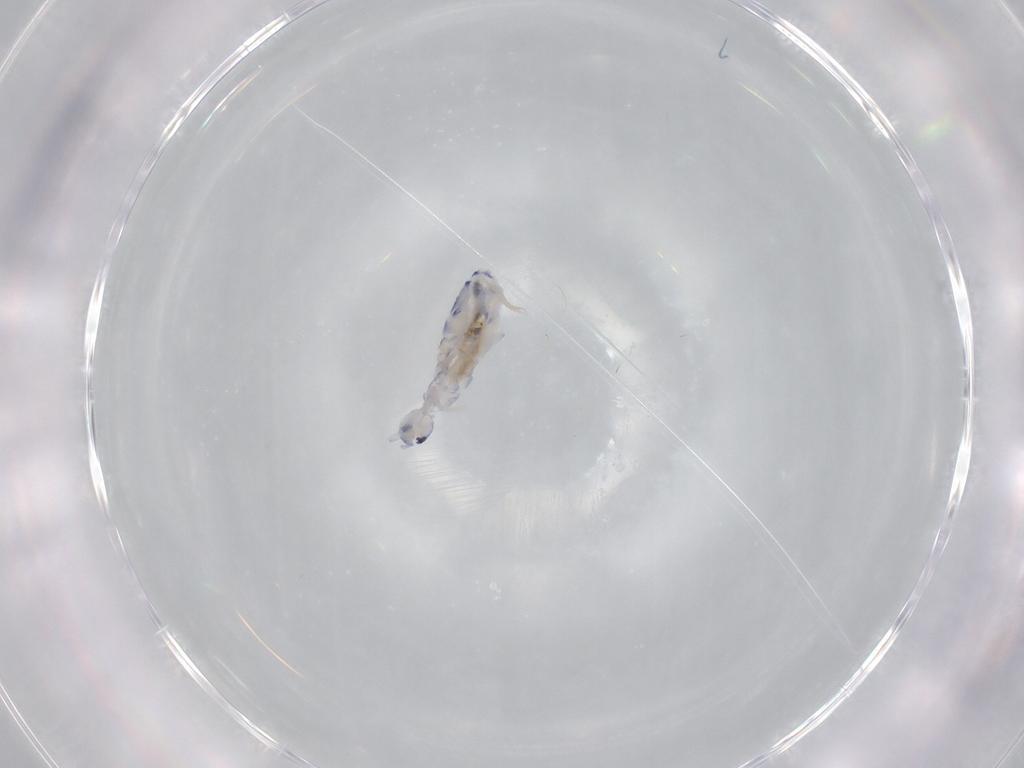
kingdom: Animalia
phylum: Arthropoda
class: Collembola
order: Entomobryomorpha
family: Entomobryidae
